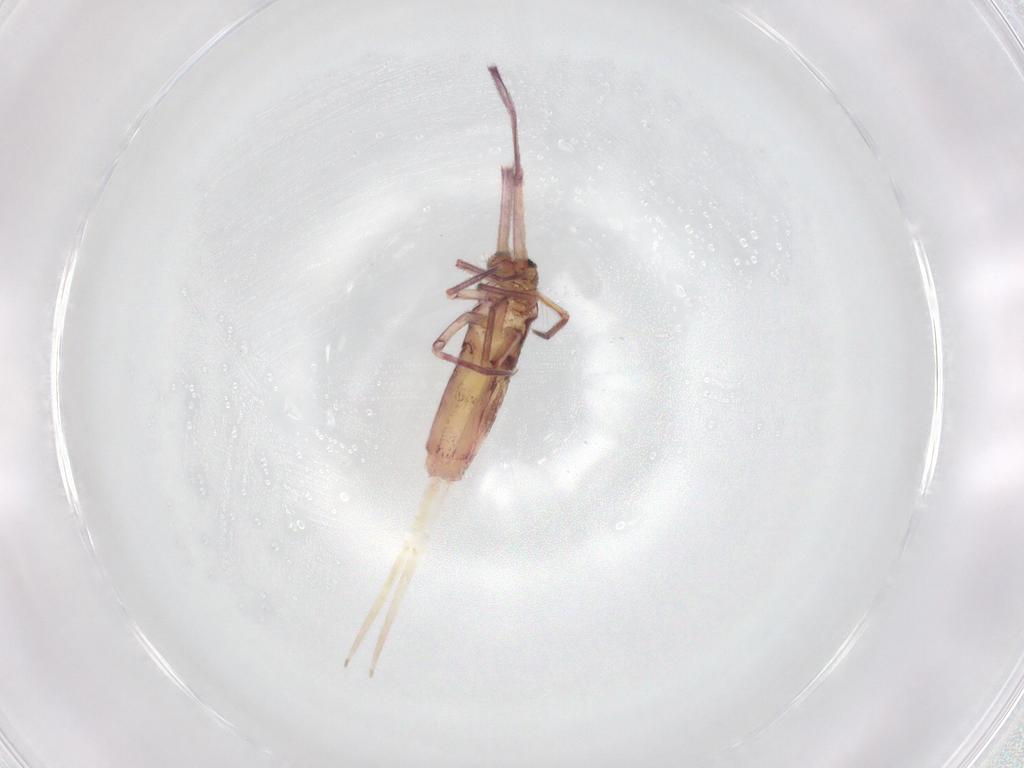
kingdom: Animalia
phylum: Arthropoda
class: Collembola
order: Entomobryomorpha
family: Entomobryidae
